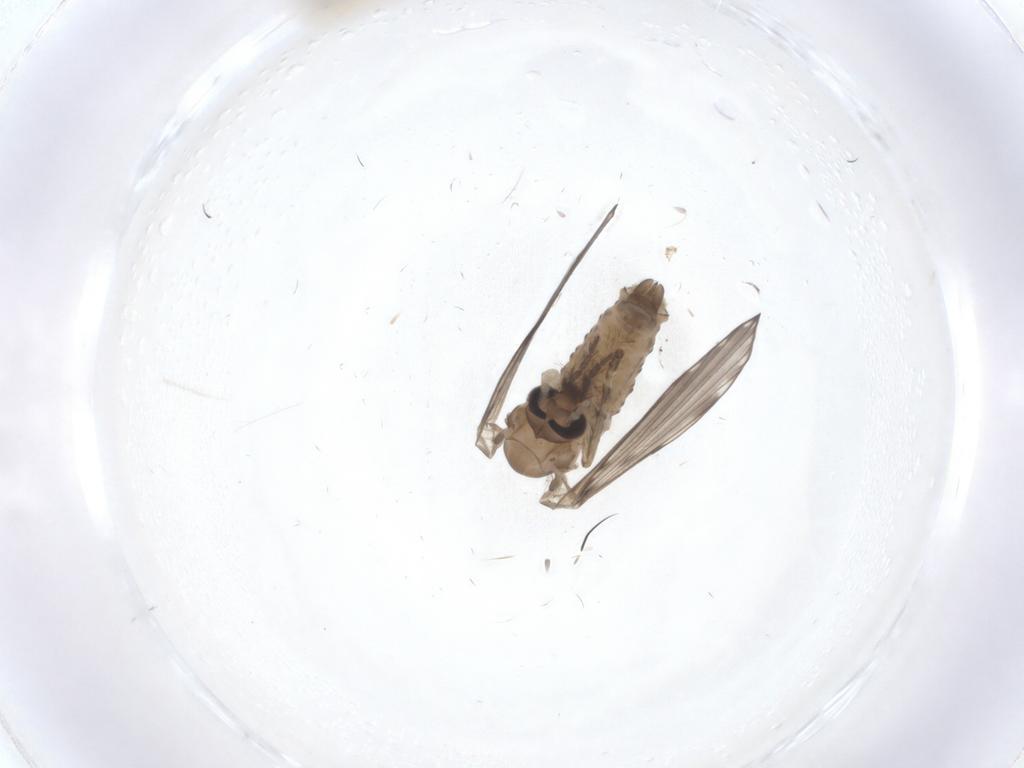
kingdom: Animalia
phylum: Arthropoda
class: Insecta
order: Diptera
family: Psychodidae
